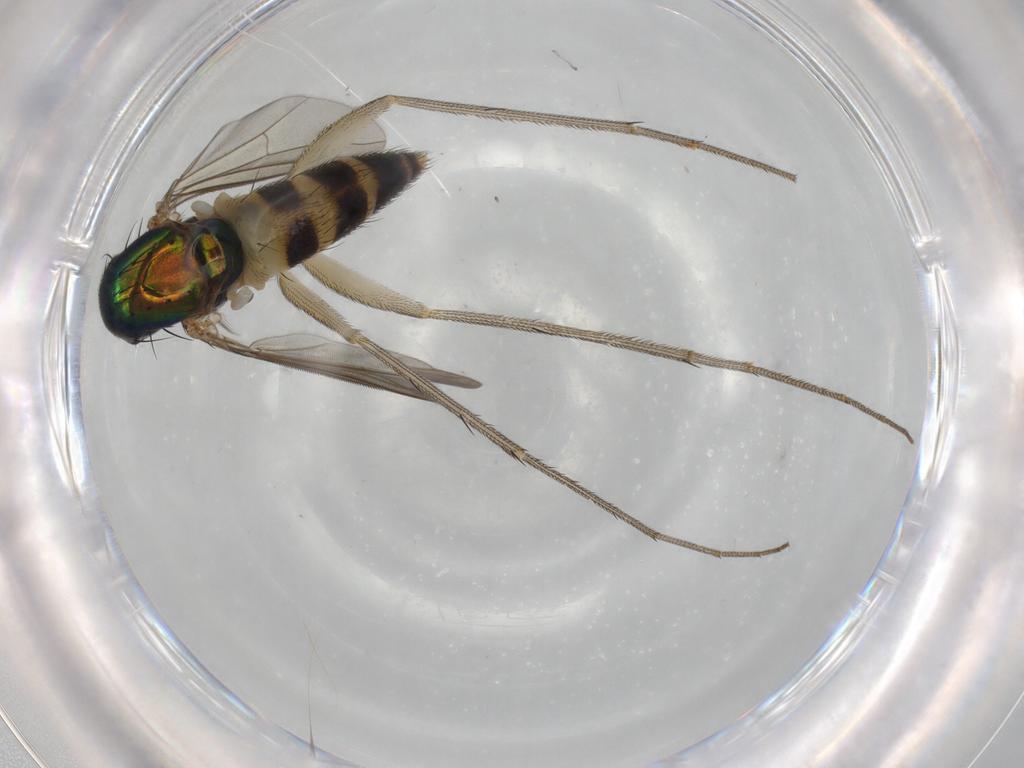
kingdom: Animalia
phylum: Arthropoda
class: Insecta
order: Diptera
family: Dolichopodidae
